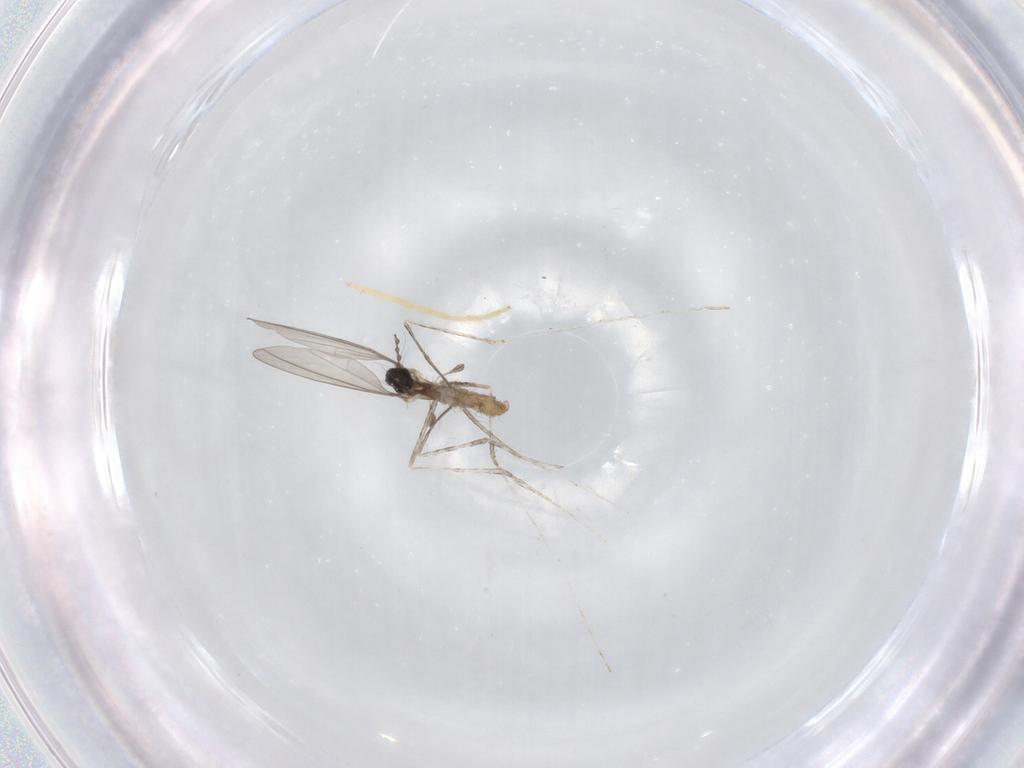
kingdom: Animalia
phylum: Arthropoda
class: Insecta
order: Diptera
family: Cecidomyiidae
